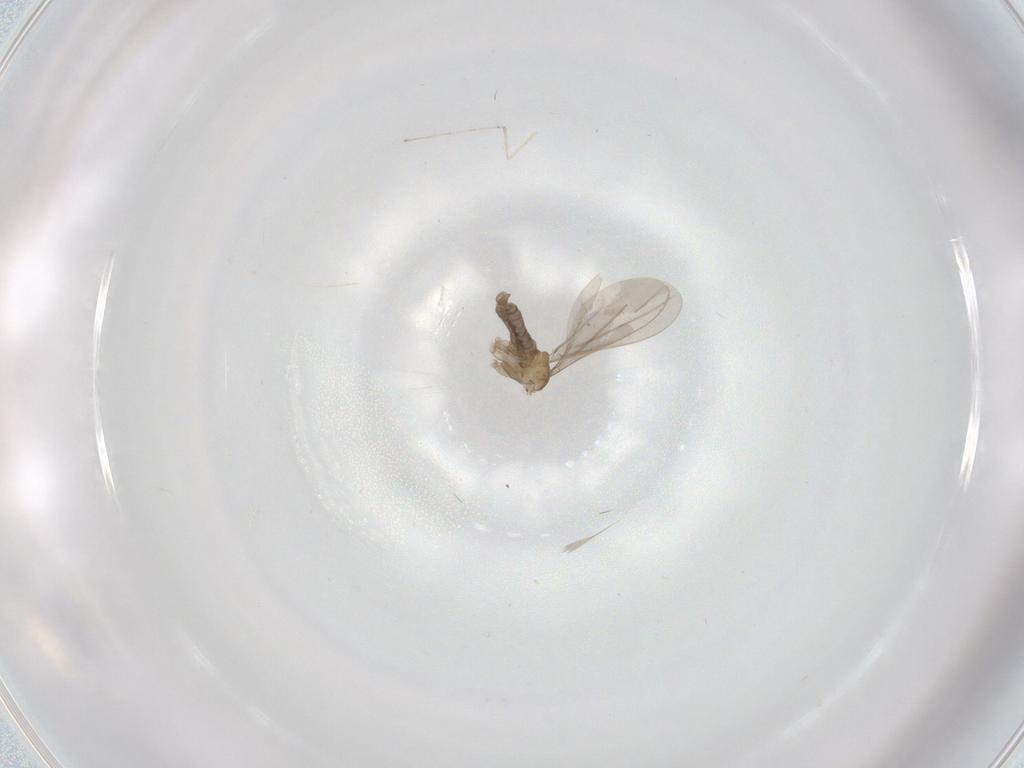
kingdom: Animalia
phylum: Arthropoda
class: Insecta
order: Diptera
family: Cecidomyiidae
